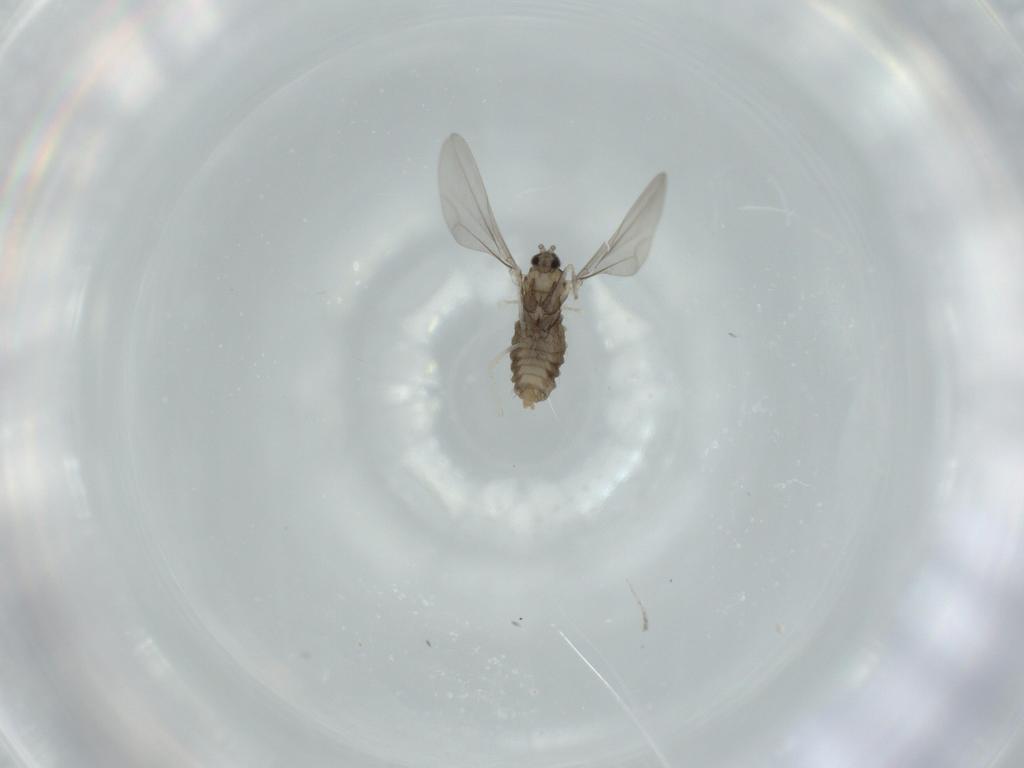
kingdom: Animalia
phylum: Arthropoda
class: Insecta
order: Diptera
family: Cecidomyiidae
